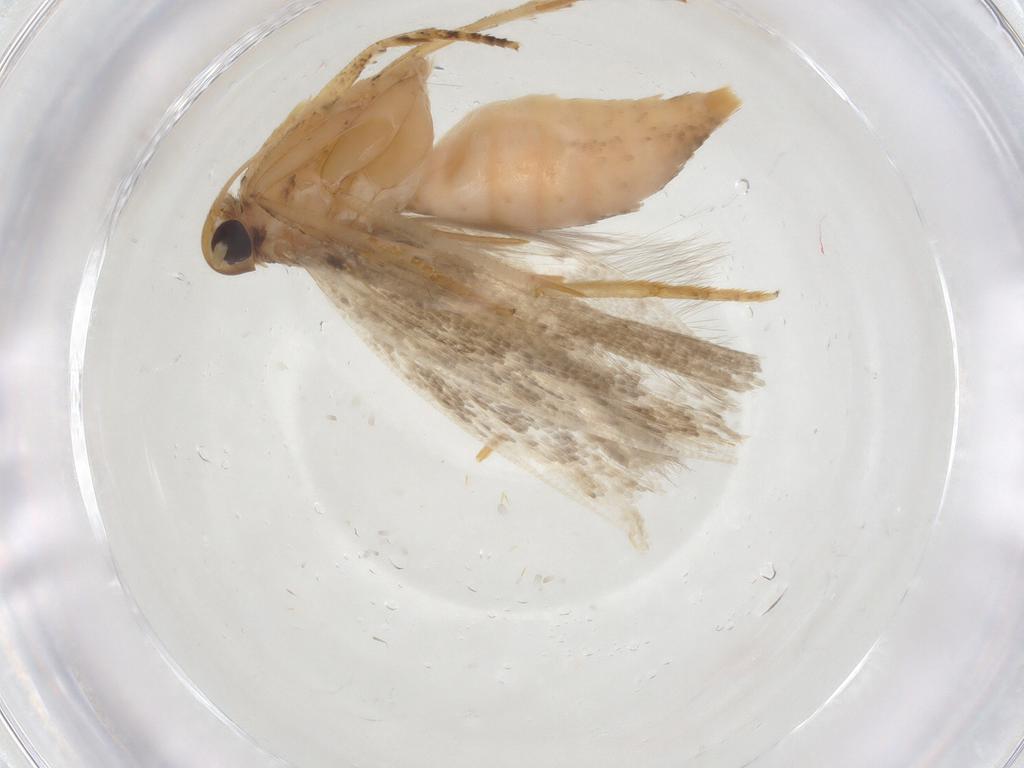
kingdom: Animalia
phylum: Arthropoda
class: Insecta
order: Lepidoptera
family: Gelechiidae
